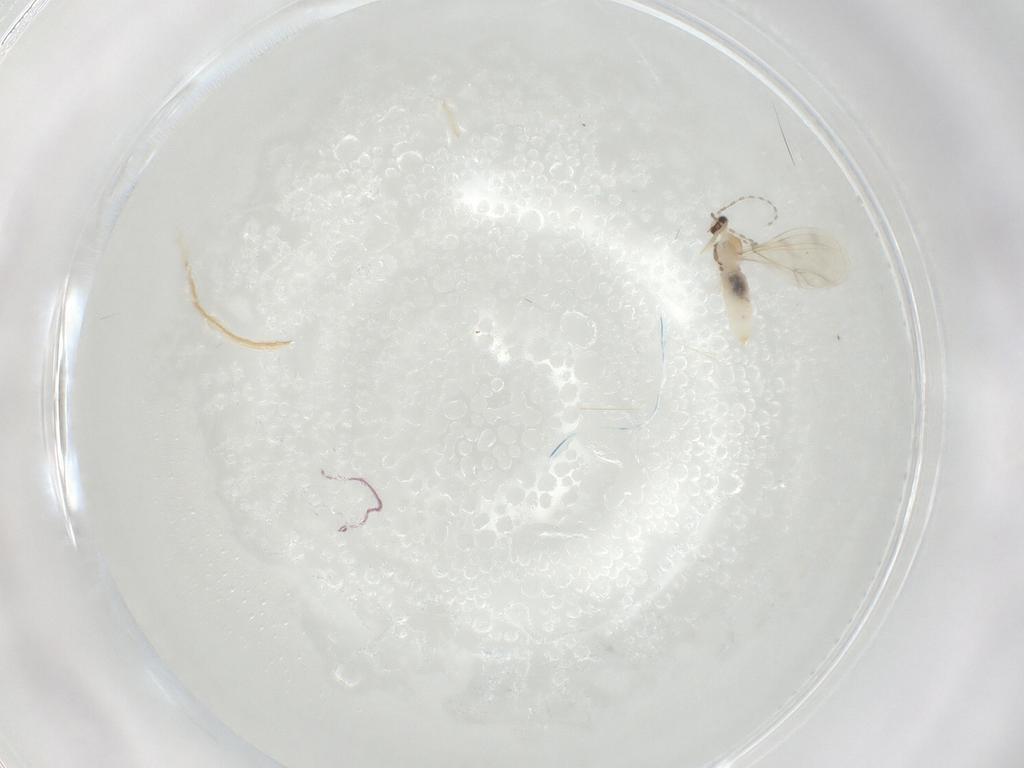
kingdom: Animalia
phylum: Arthropoda
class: Insecta
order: Diptera
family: Cecidomyiidae
